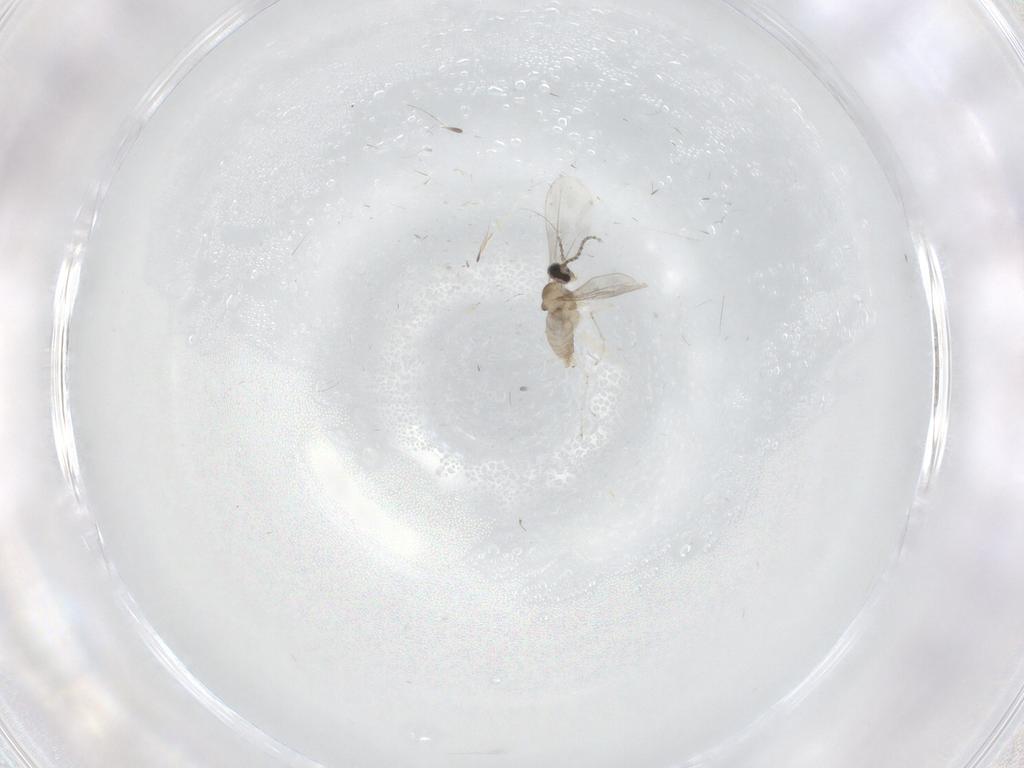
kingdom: Animalia
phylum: Arthropoda
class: Insecta
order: Diptera
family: Cecidomyiidae
